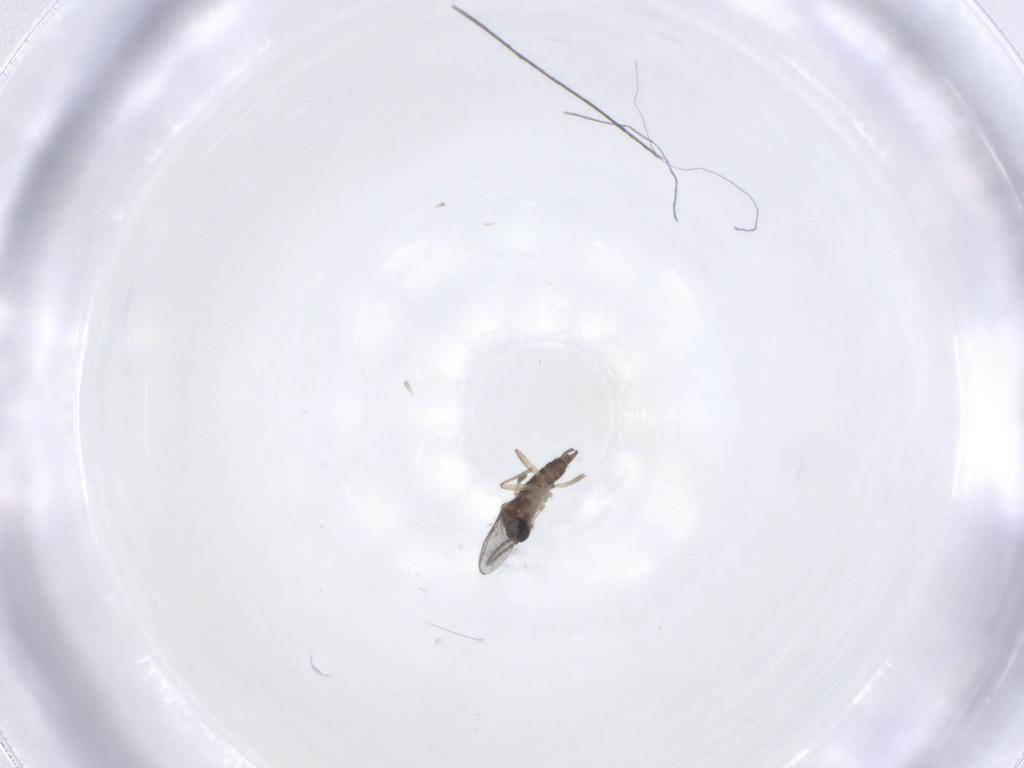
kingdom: Animalia
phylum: Arthropoda
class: Insecta
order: Diptera
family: Sciaridae
